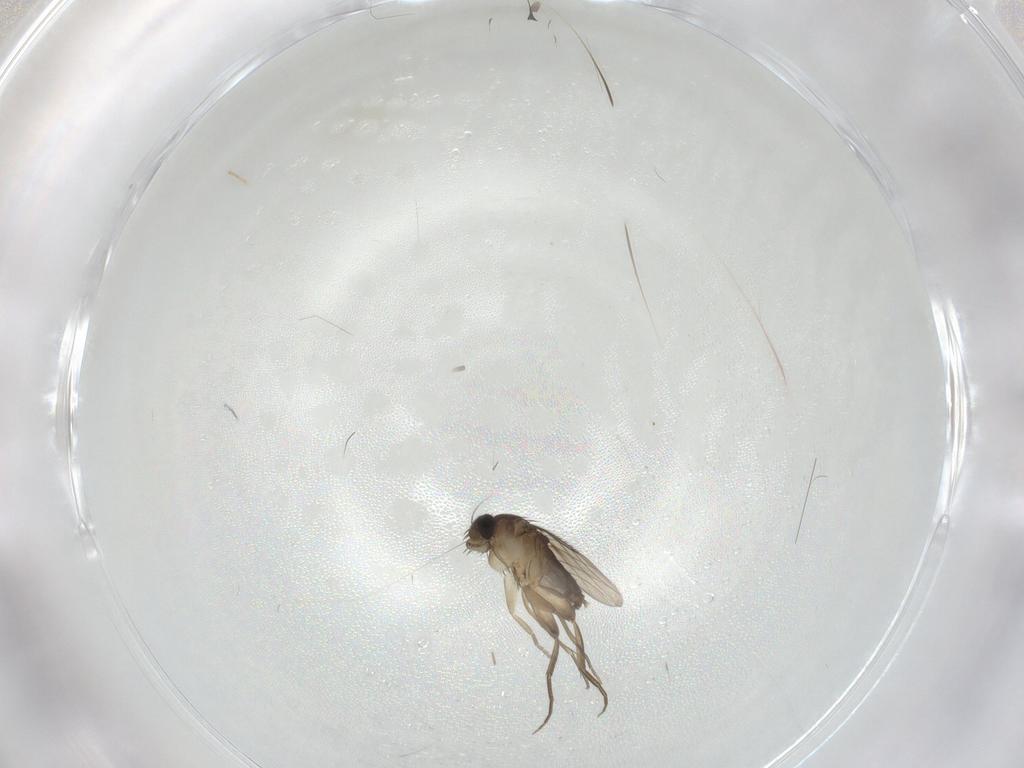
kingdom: Animalia
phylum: Arthropoda
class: Insecta
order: Diptera
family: Phoridae
